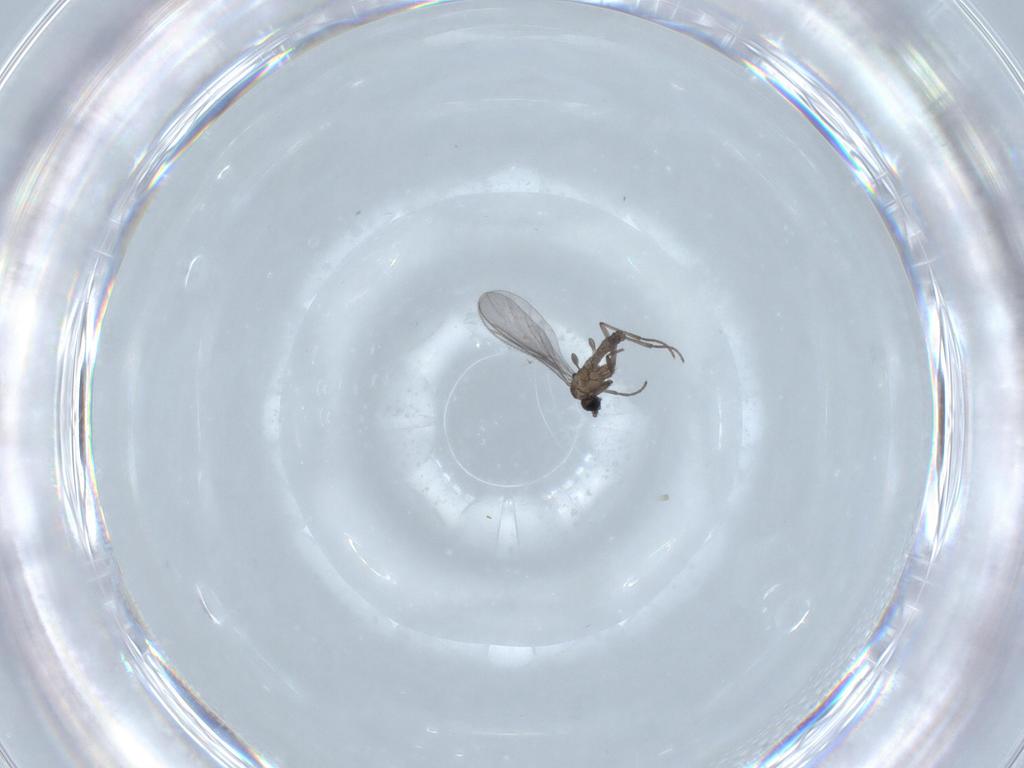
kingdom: Animalia
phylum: Arthropoda
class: Insecta
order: Diptera
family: Sciaridae
